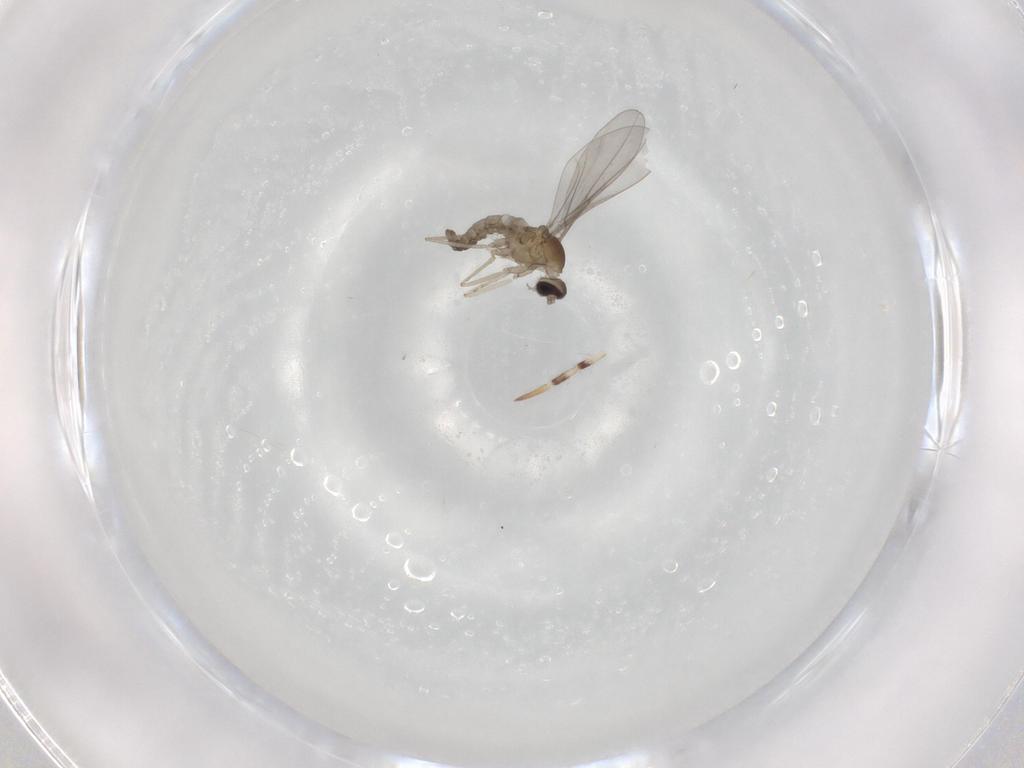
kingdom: Animalia
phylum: Arthropoda
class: Insecta
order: Diptera
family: Cecidomyiidae
